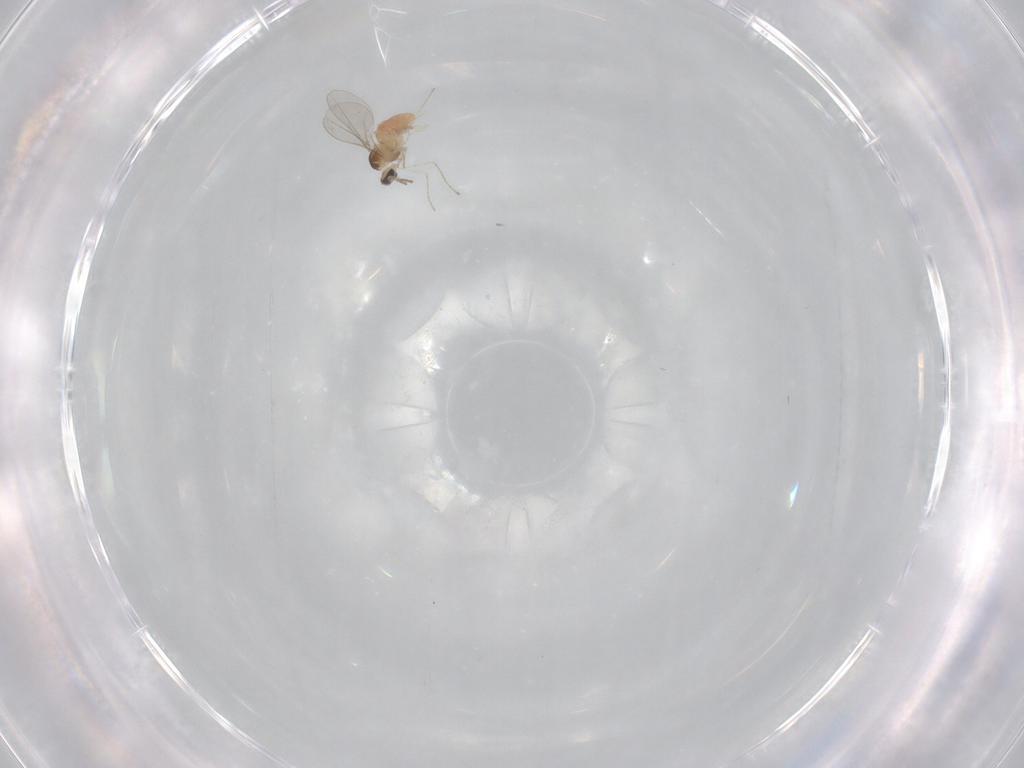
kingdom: Animalia
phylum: Arthropoda
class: Insecta
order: Diptera
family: Cecidomyiidae
